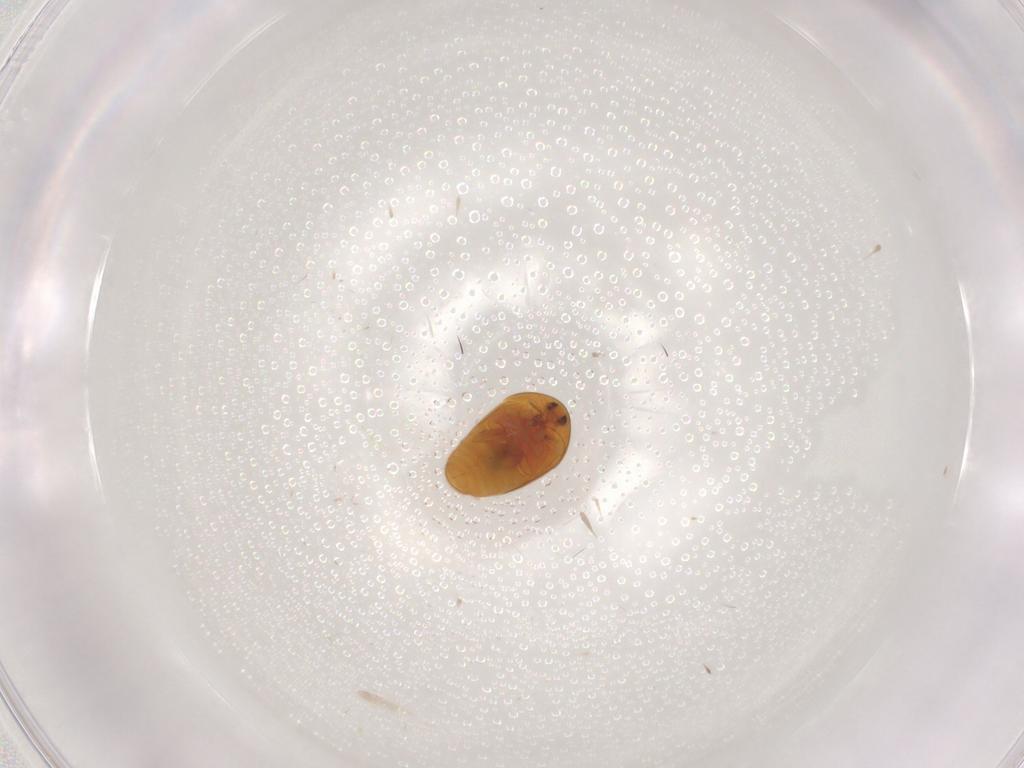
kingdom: Animalia
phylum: Arthropoda
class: Insecta
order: Coleoptera
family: Corylophidae
